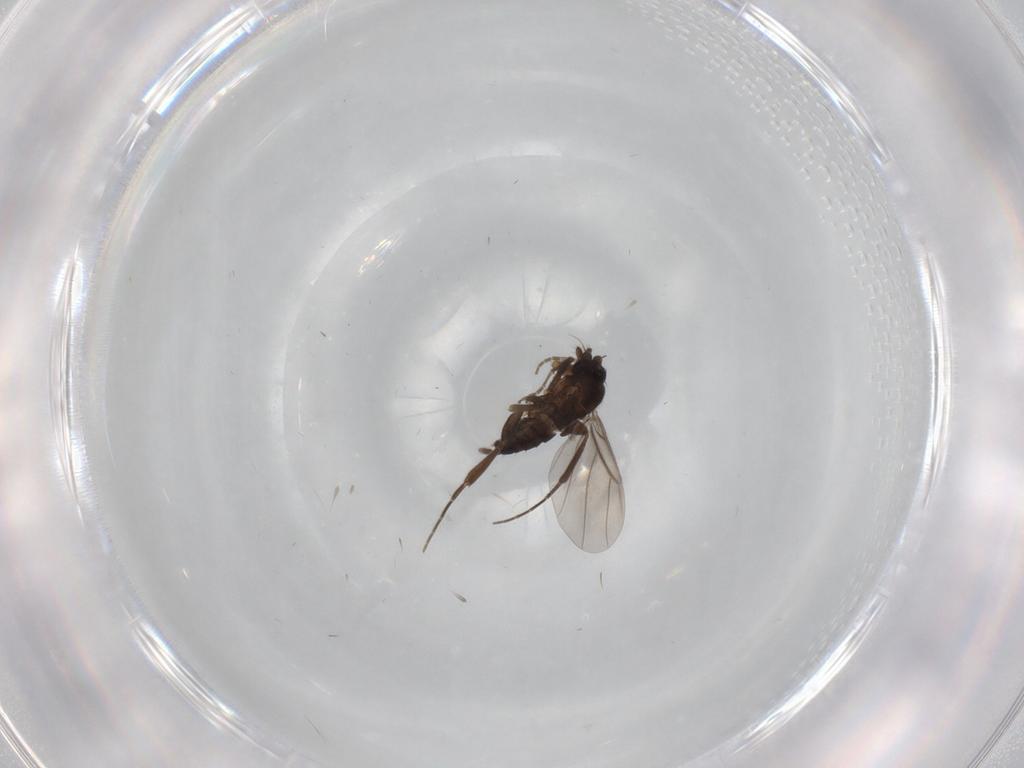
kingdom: Animalia
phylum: Arthropoda
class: Insecta
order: Diptera
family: Phoridae
